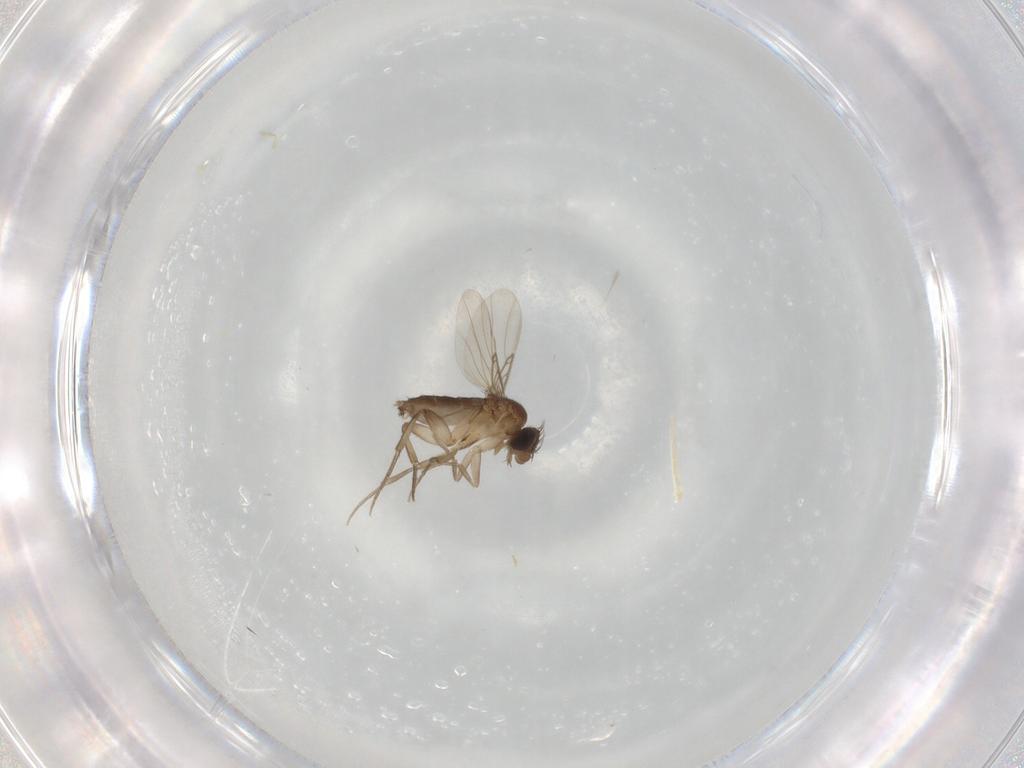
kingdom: Animalia
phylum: Arthropoda
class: Insecta
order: Diptera
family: Phoridae
